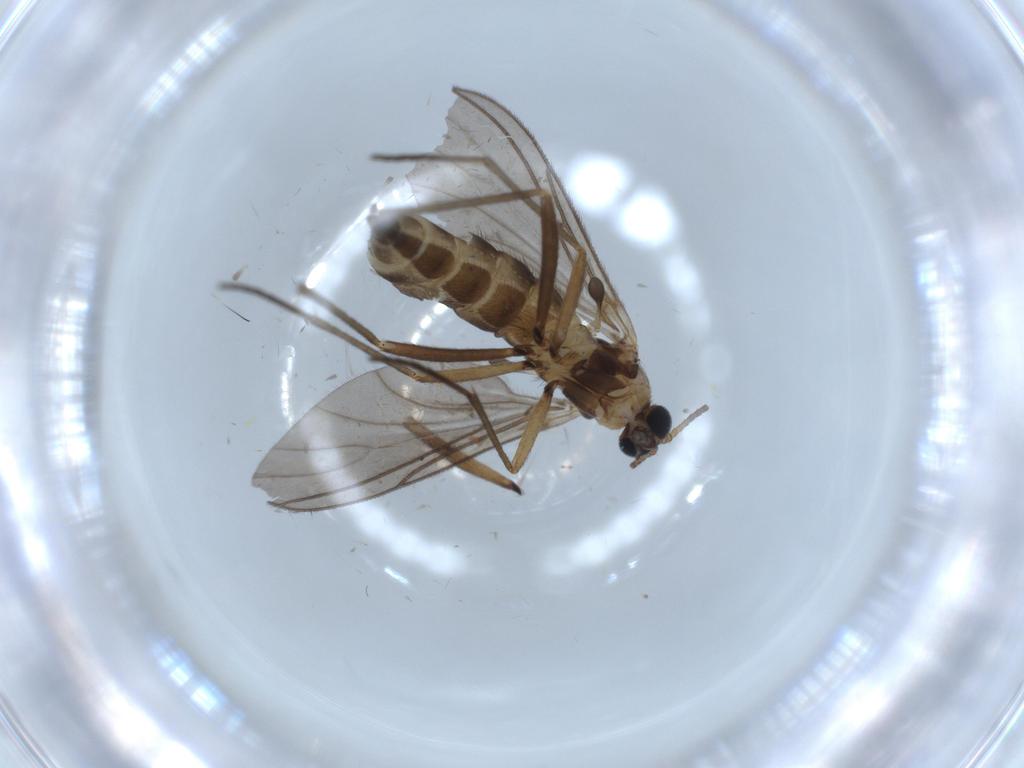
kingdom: Animalia
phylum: Arthropoda
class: Insecta
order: Diptera
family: Sciaridae
